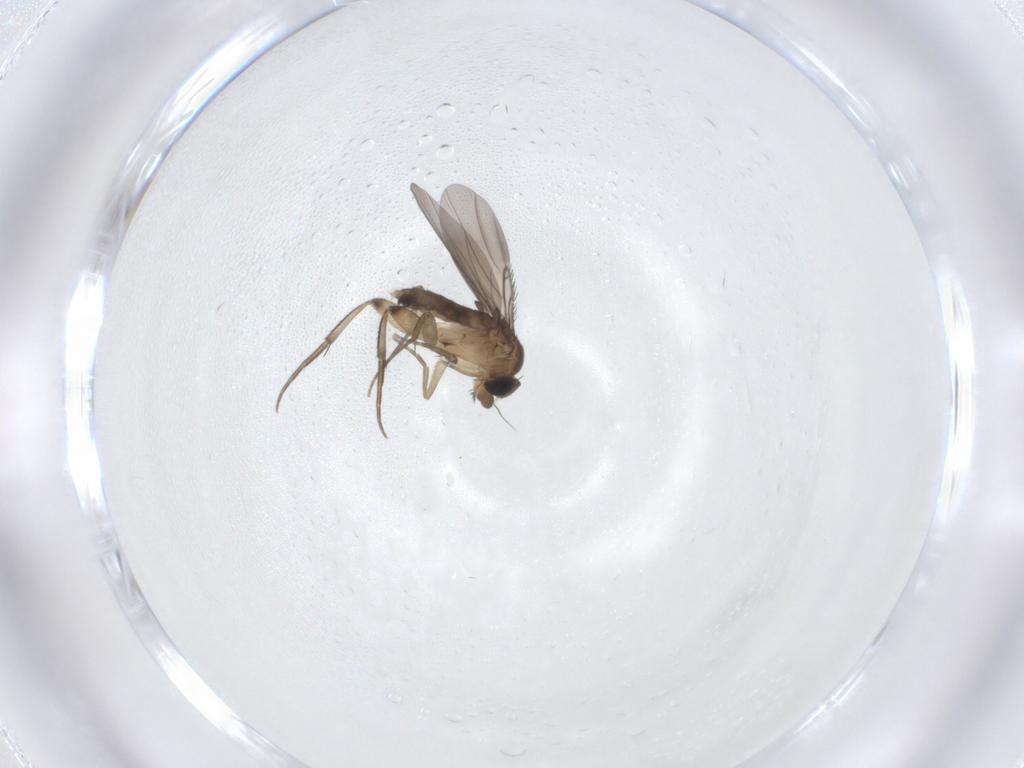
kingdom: Animalia
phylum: Arthropoda
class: Insecta
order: Diptera
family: Phoridae
